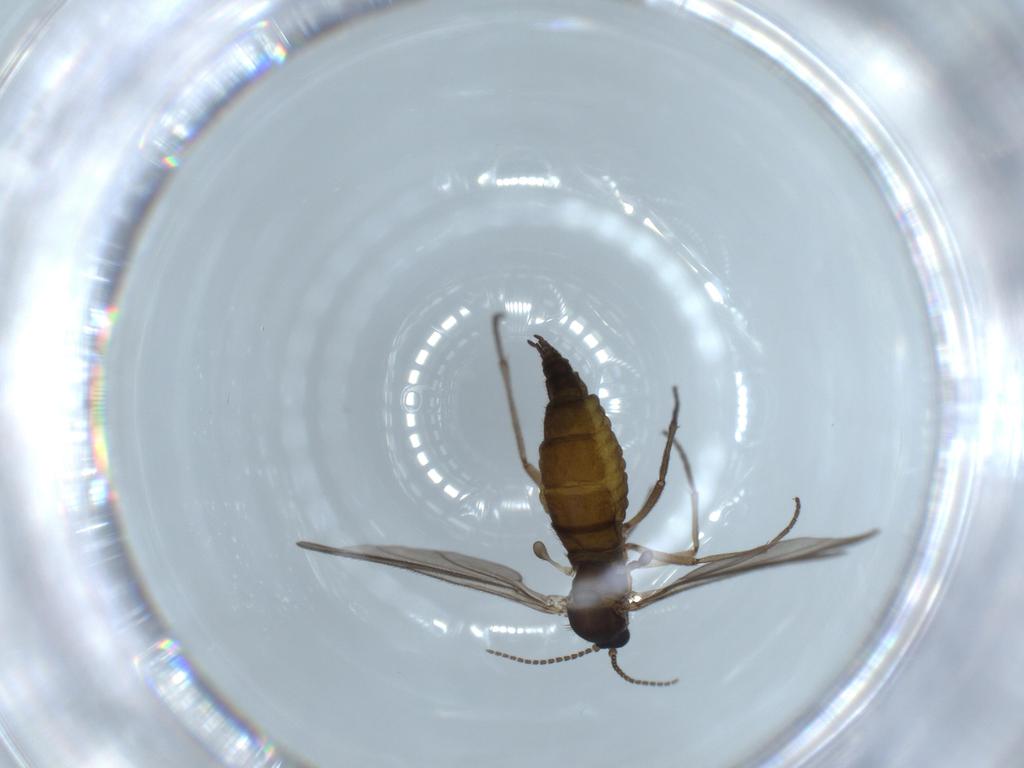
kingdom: Animalia
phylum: Arthropoda
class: Insecta
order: Diptera
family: Sciaridae
